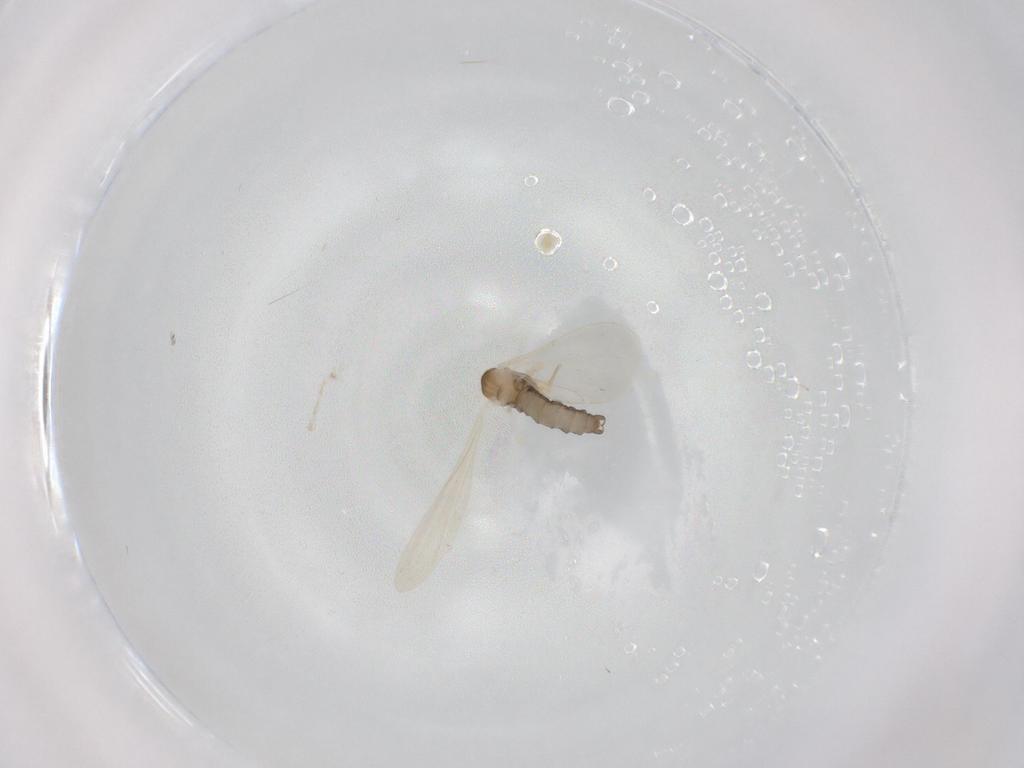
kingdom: Animalia
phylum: Arthropoda
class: Insecta
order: Diptera
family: Cecidomyiidae
